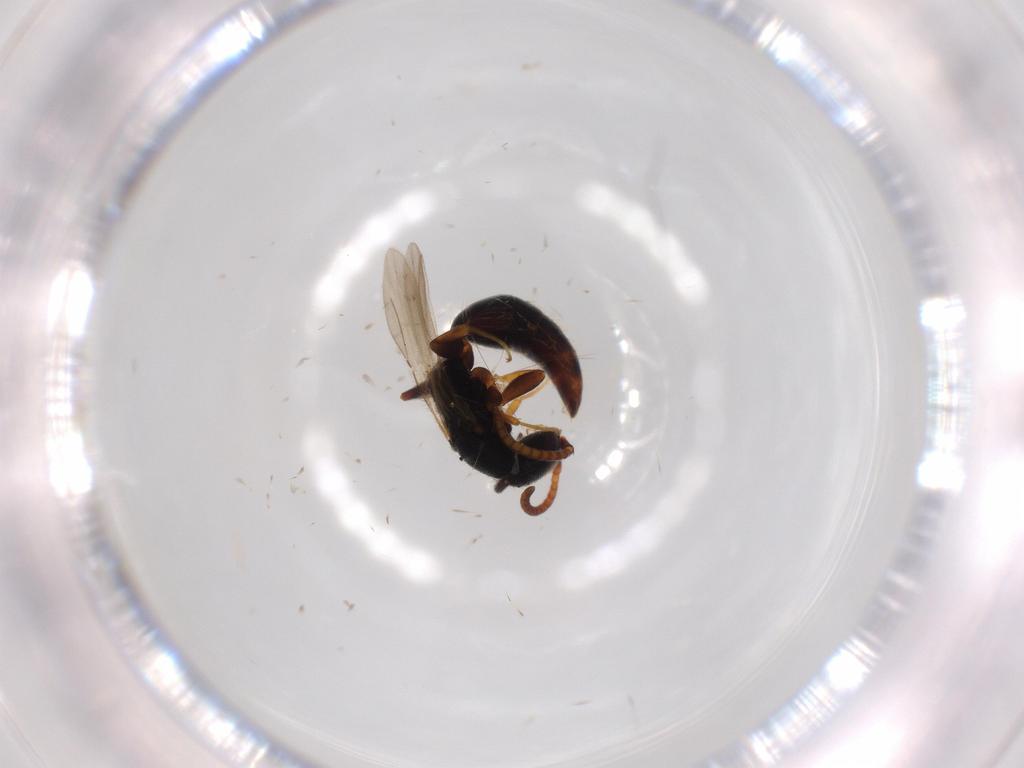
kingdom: Animalia
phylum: Arthropoda
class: Insecta
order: Hymenoptera
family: Bethylidae
